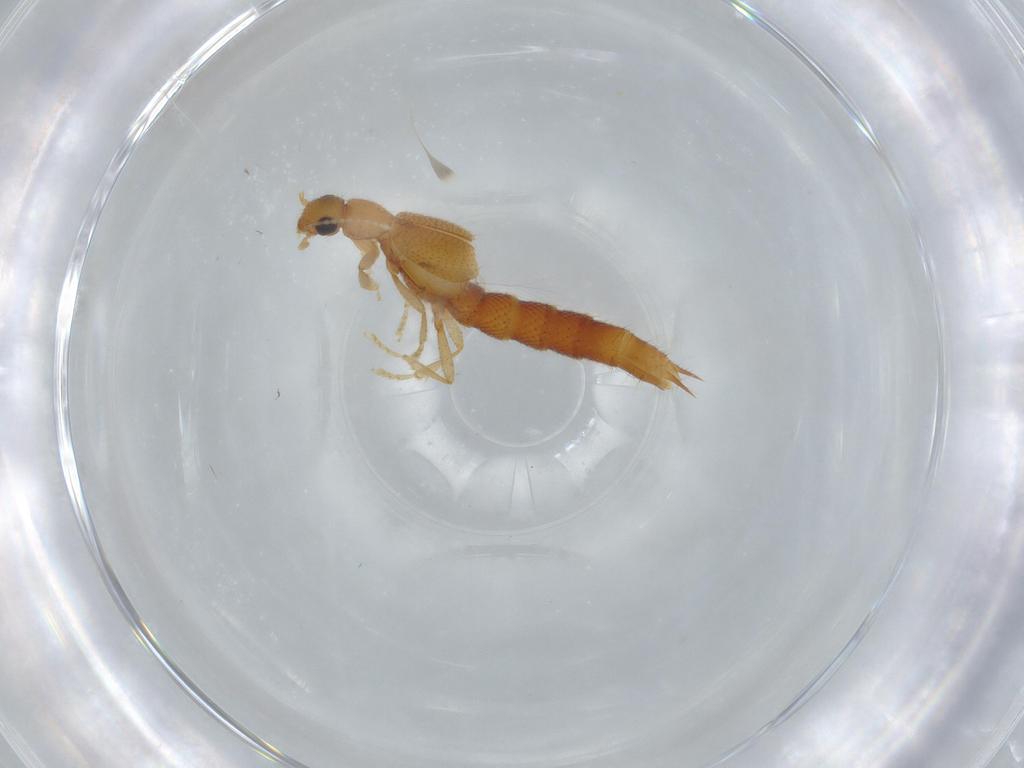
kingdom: Animalia
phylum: Arthropoda
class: Insecta
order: Coleoptera
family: Staphylinidae
